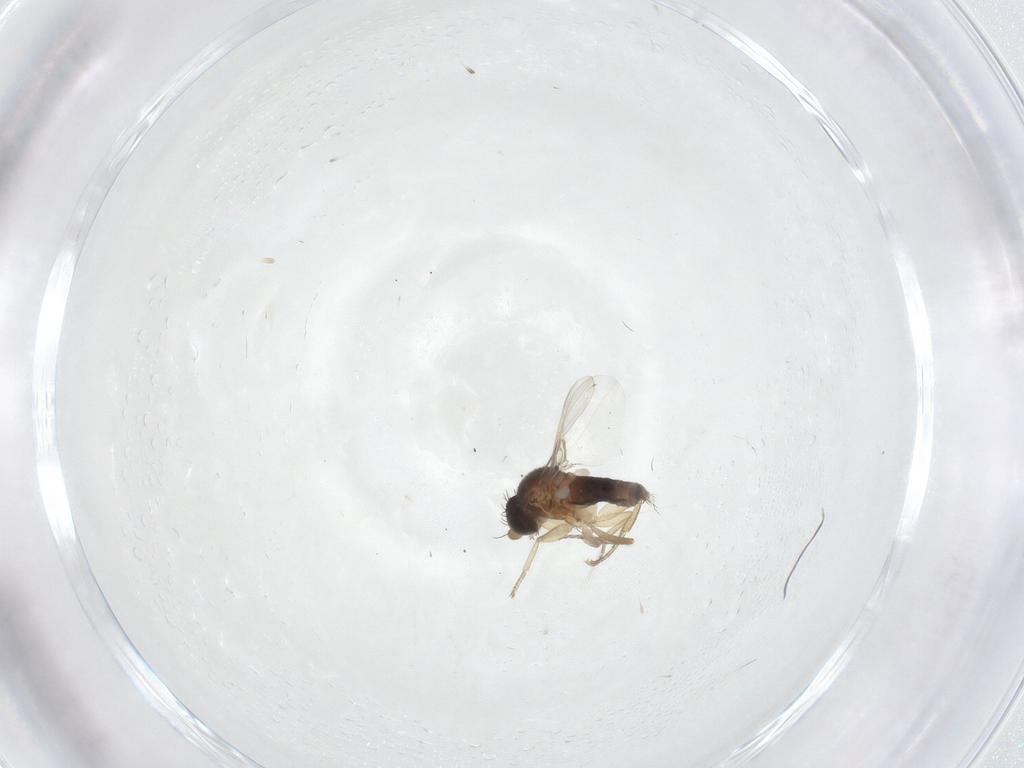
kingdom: Animalia
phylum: Arthropoda
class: Insecta
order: Diptera
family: Phoridae
